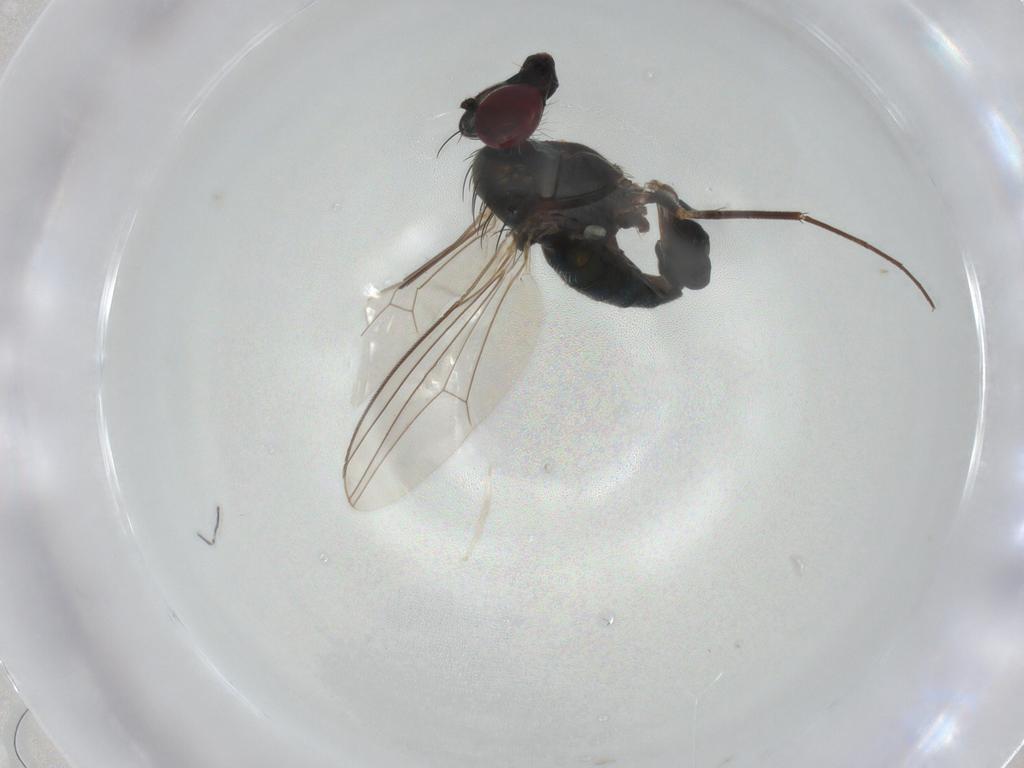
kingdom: Animalia
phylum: Arthropoda
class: Insecta
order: Diptera
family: Dolichopodidae
